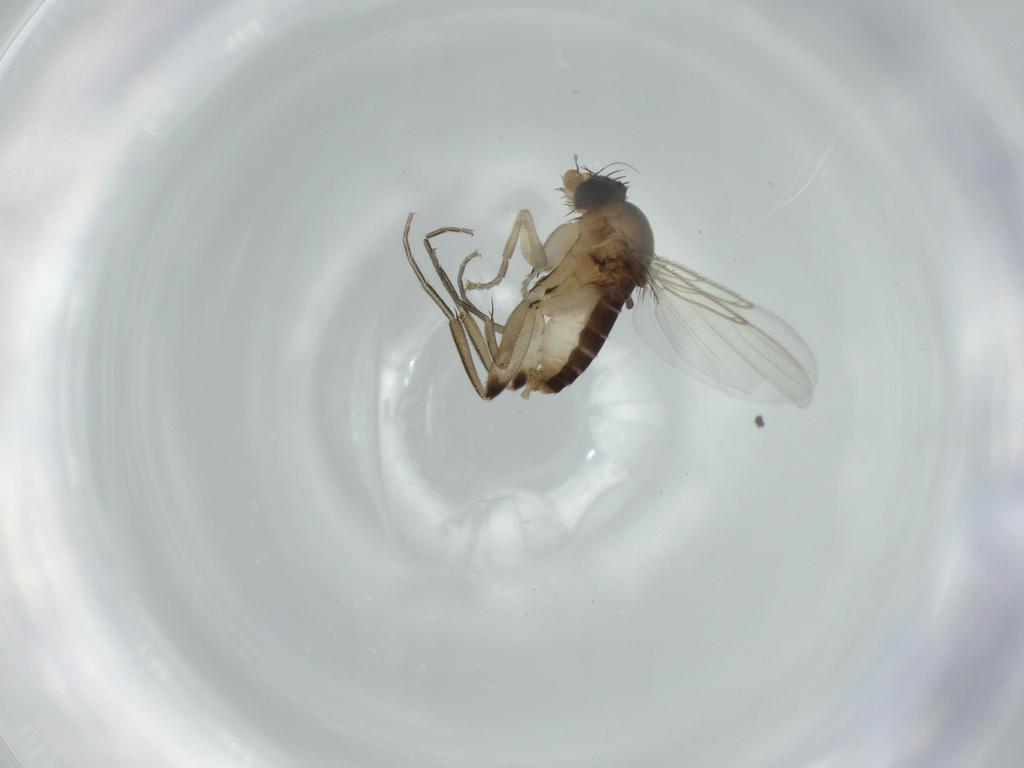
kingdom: Animalia
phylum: Arthropoda
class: Insecta
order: Diptera
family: Phoridae
